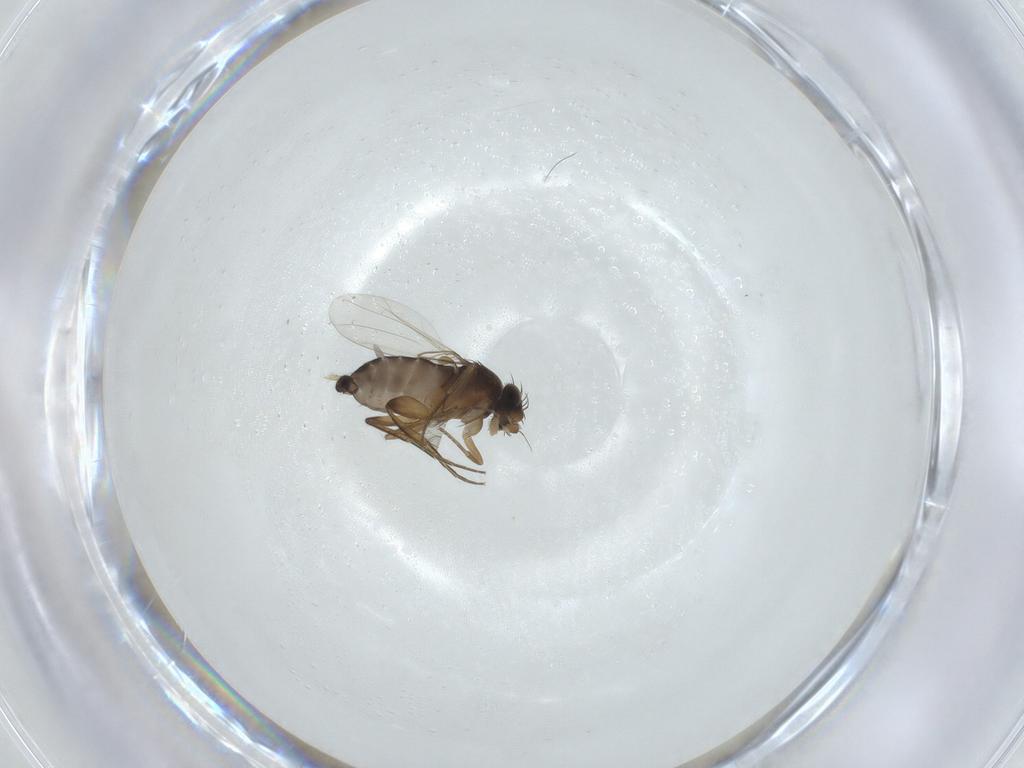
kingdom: Animalia
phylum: Arthropoda
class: Insecta
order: Diptera
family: Phoridae
